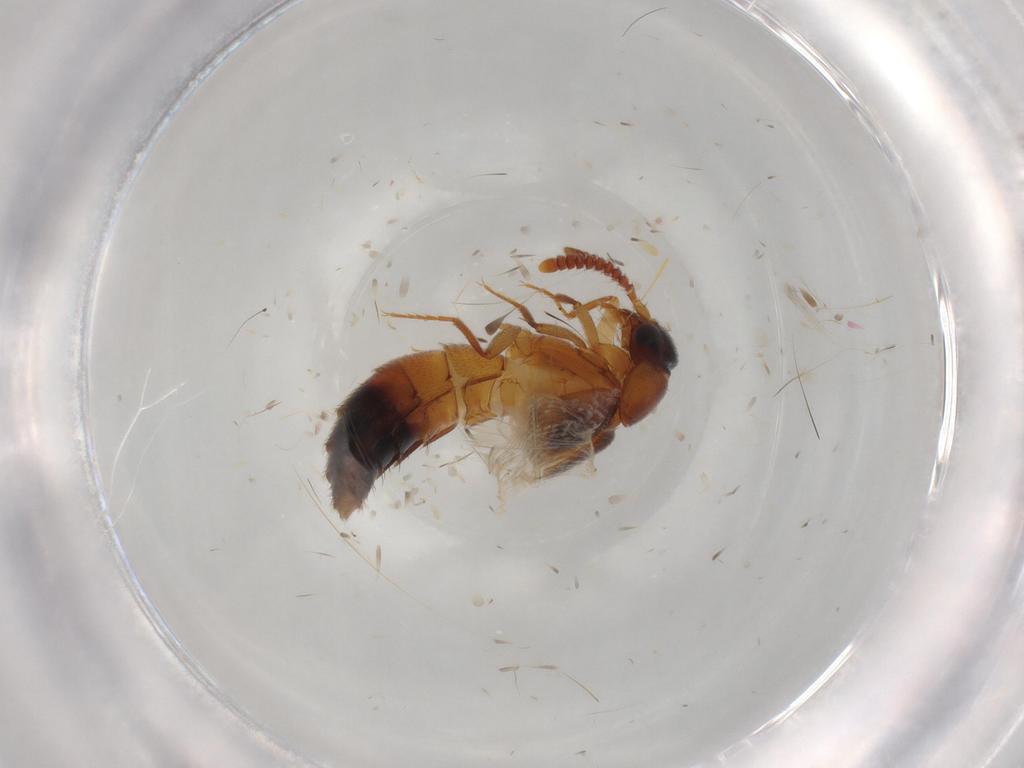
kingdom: Animalia
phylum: Arthropoda
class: Insecta
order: Coleoptera
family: Staphylinidae
